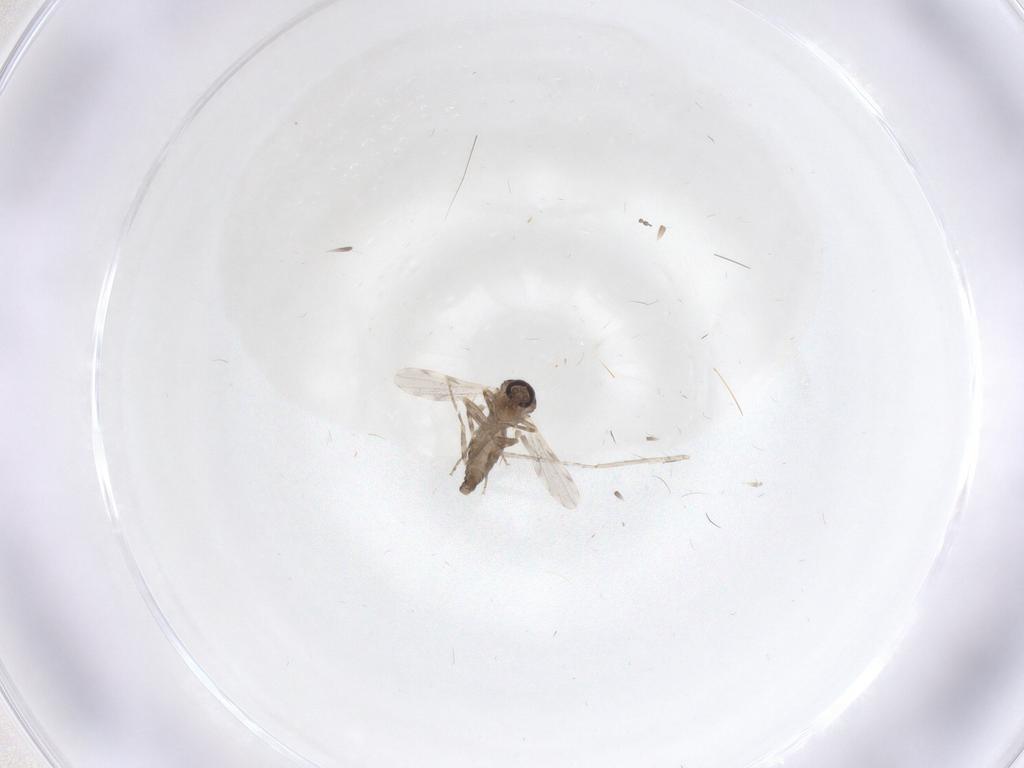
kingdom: Animalia
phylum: Arthropoda
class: Insecta
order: Diptera
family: Ceratopogonidae
